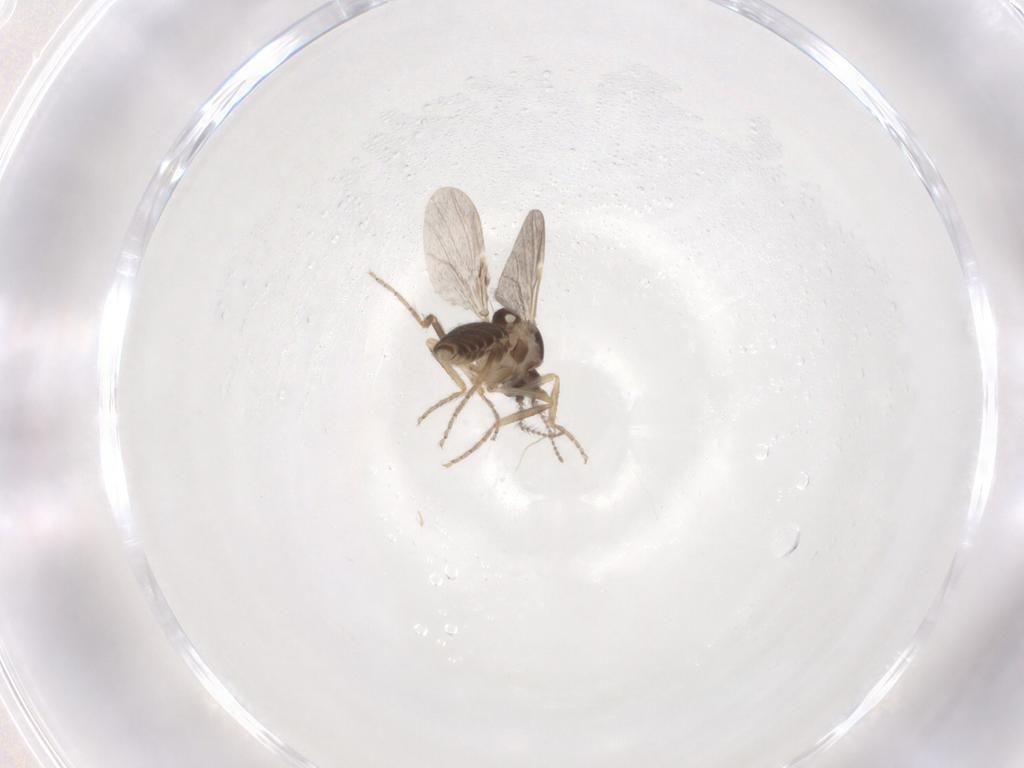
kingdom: Animalia
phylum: Arthropoda
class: Insecta
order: Diptera
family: Ceratopogonidae
